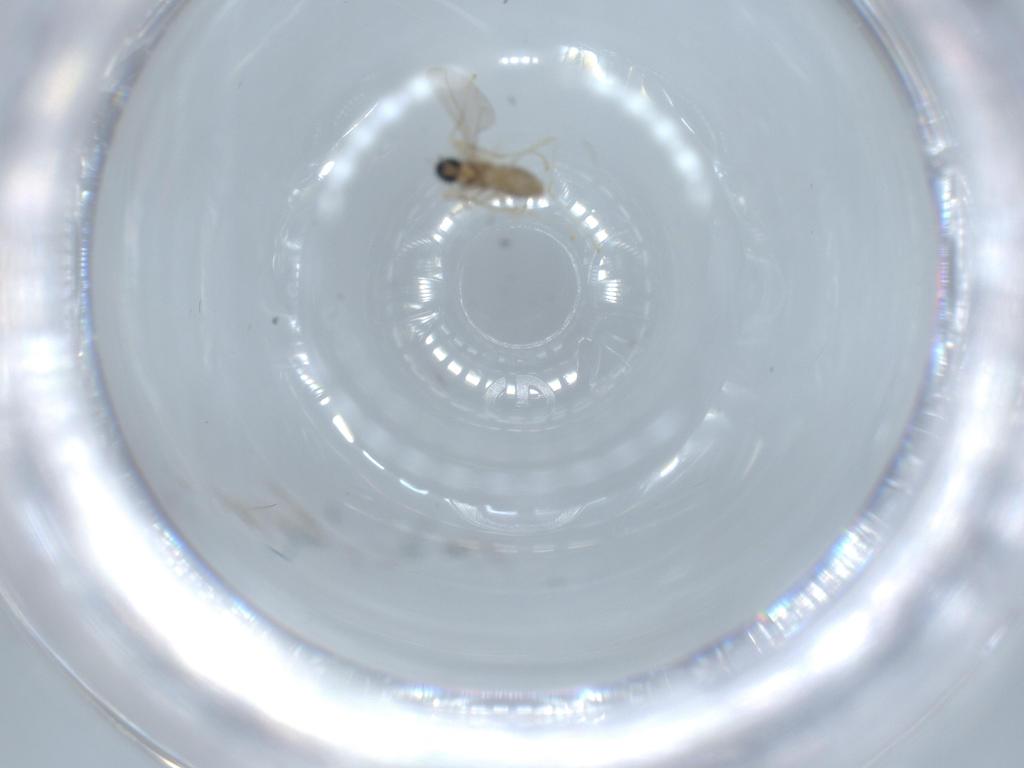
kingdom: Animalia
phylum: Arthropoda
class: Insecta
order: Diptera
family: Cecidomyiidae
